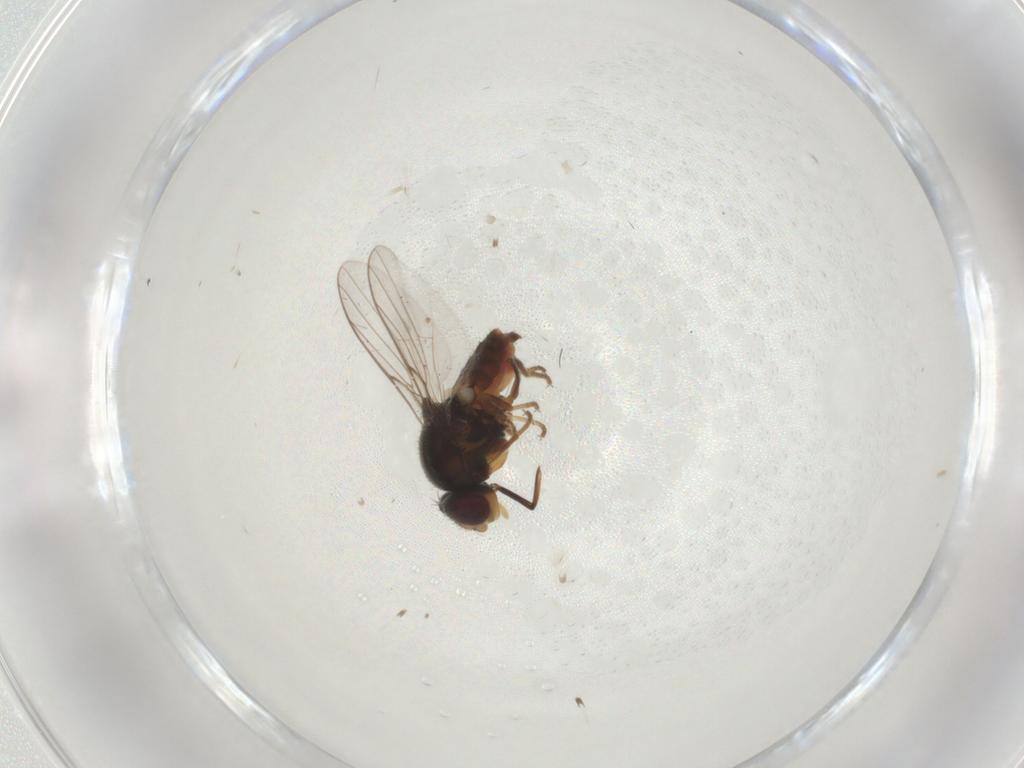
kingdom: Animalia
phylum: Arthropoda
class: Insecta
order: Diptera
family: Chloropidae
